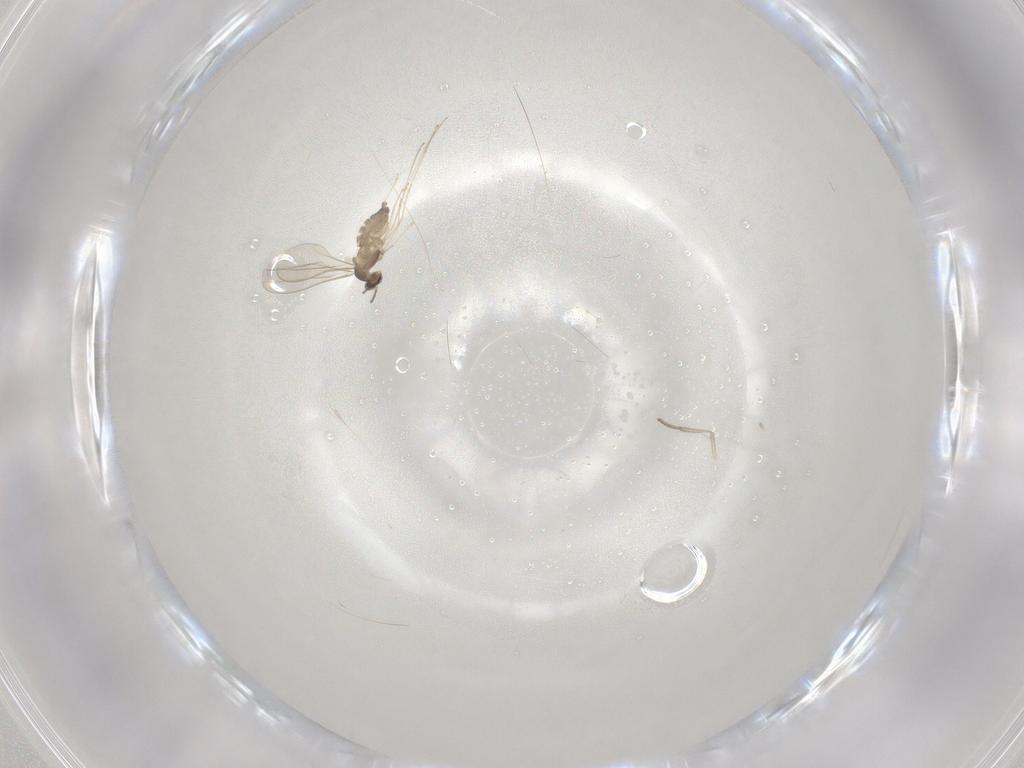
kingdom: Animalia
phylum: Arthropoda
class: Insecta
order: Diptera
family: Cecidomyiidae
